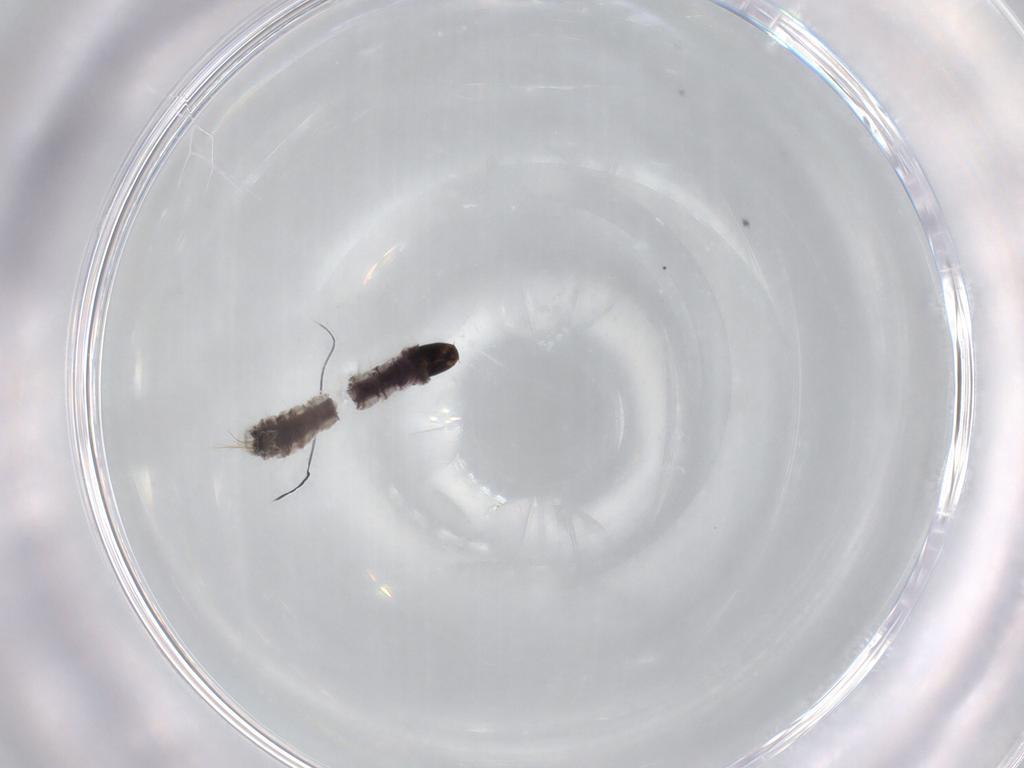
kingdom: Animalia
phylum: Arthropoda
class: Insecta
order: Diptera
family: Chironomidae
